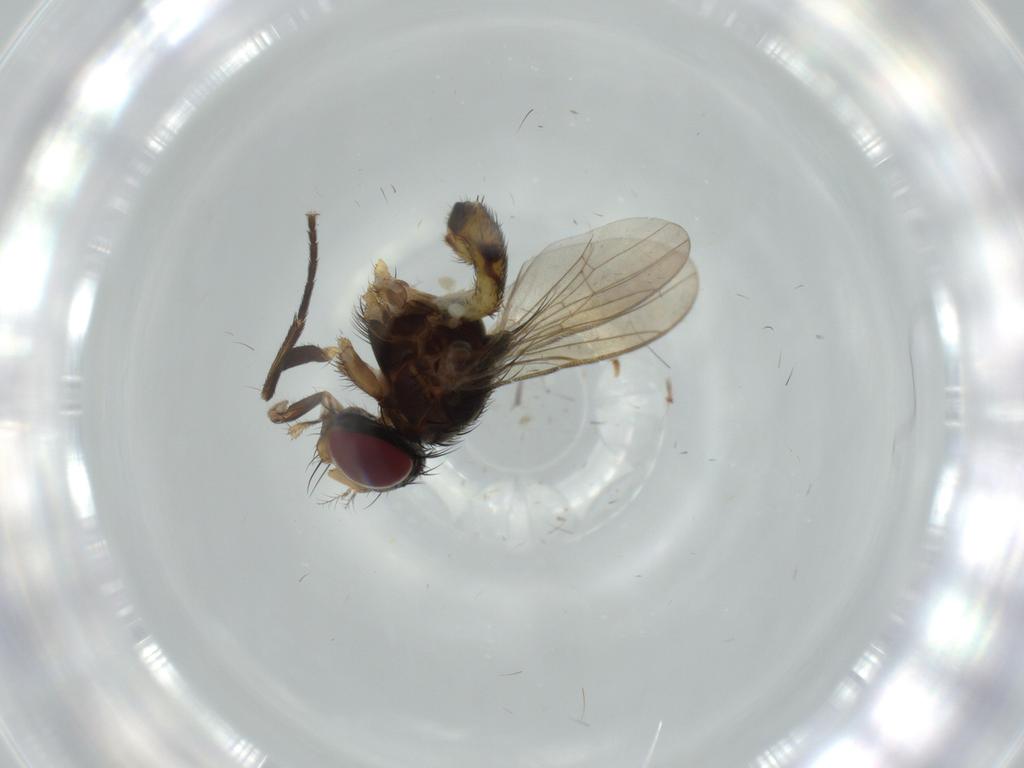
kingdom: Animalia
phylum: Arthropoda
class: Insecta
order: Diptera
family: Anthomyiidae
